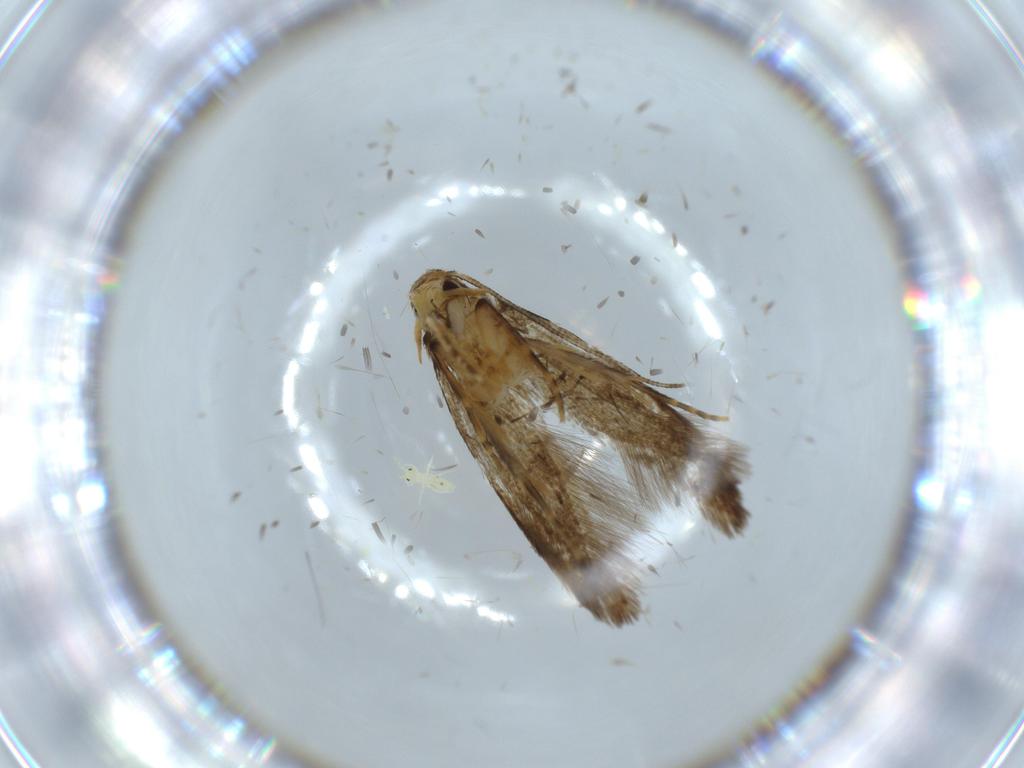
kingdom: Animalia
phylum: Arthropoda
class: Insecta
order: Lepidoptera
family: Tineidae
